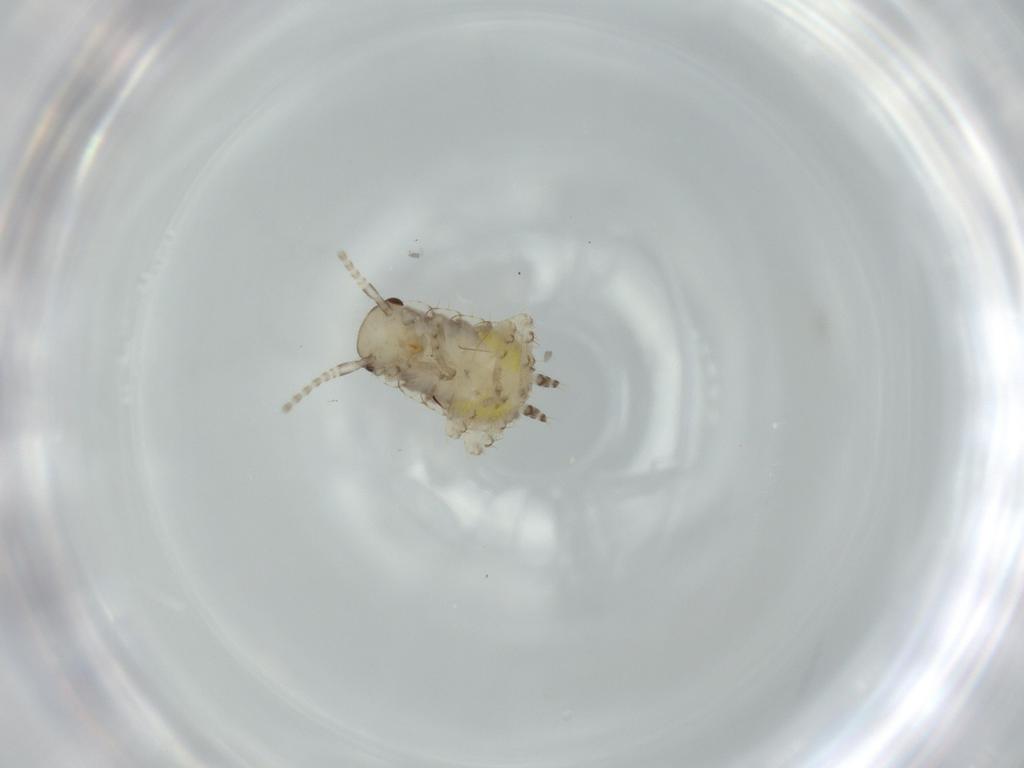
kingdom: Animalia
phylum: Arthropoda
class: Insecta
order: Blattodea
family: Ectobiidae
